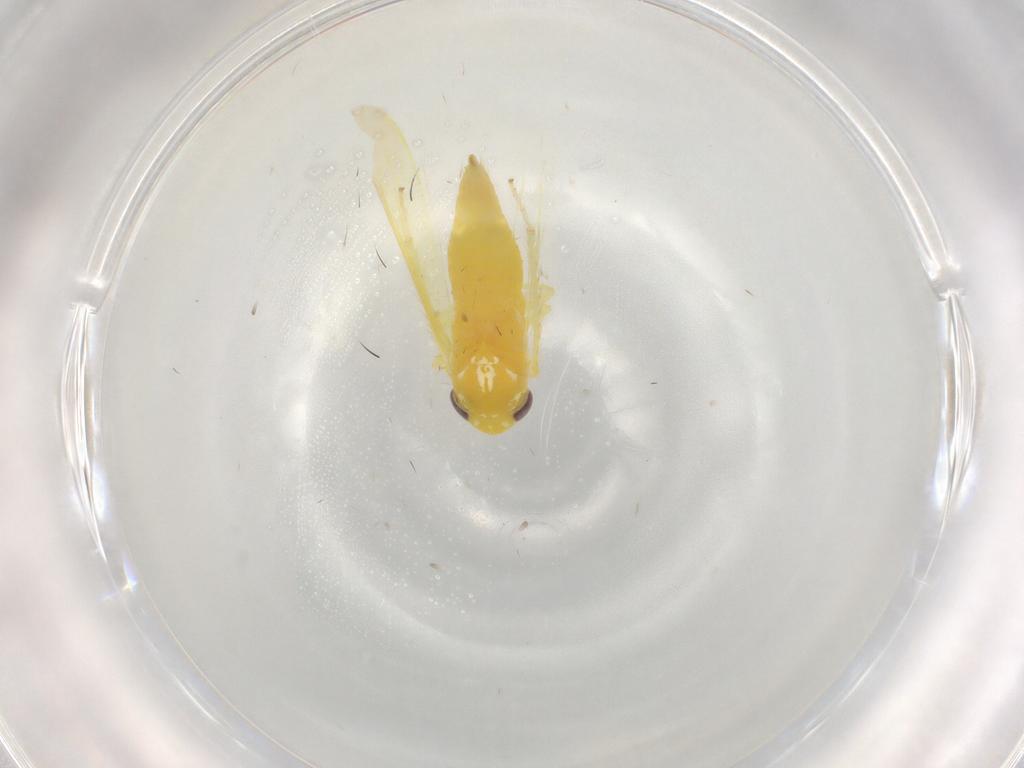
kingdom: Animalia
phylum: Arthropoda
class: Insecta
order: Hemiptera
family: Cicadellidae
